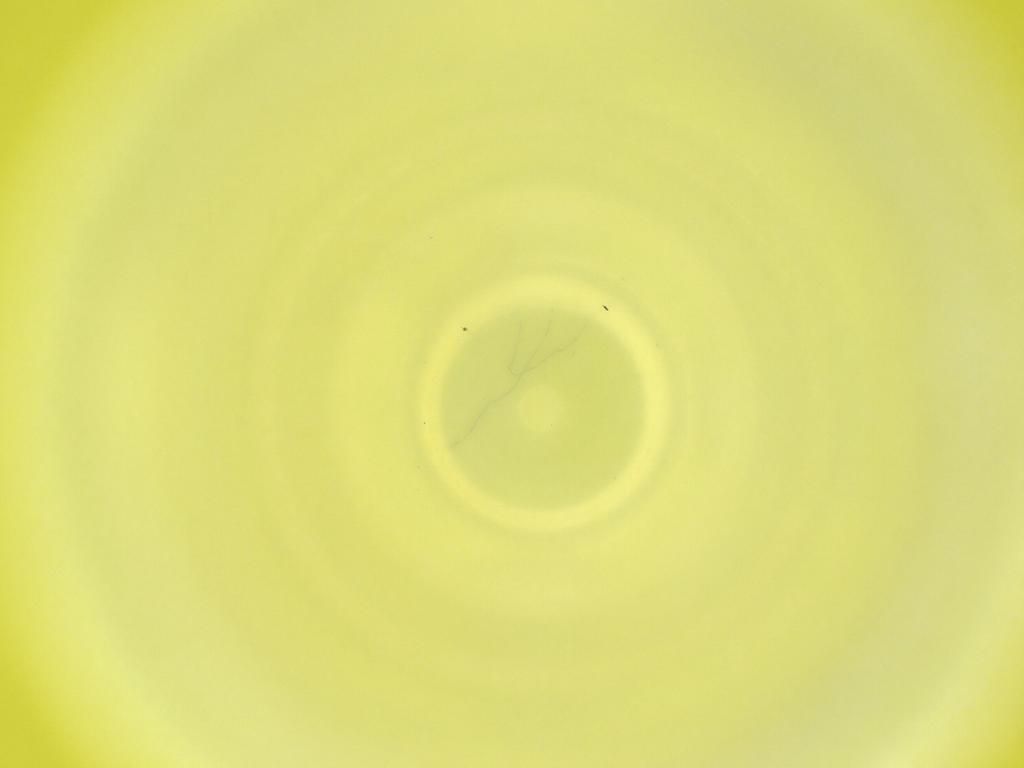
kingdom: Animalia
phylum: Arthropoda
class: Insecta
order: Diptera
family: Cecidomyiidae
